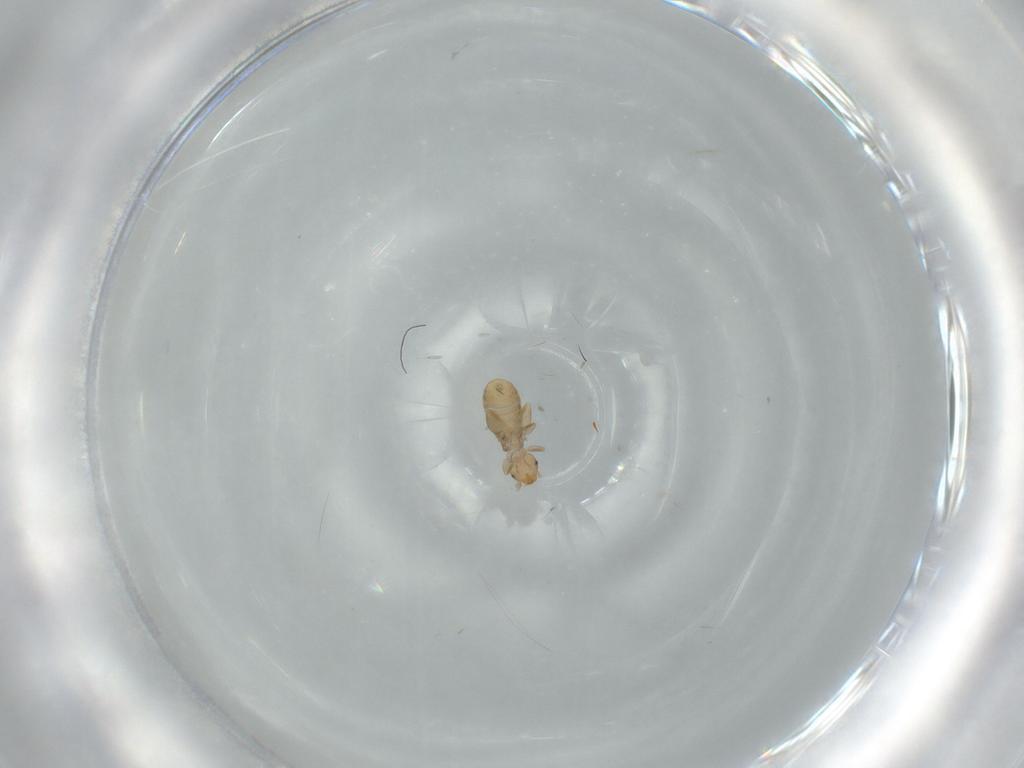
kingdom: Animalia
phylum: Arthropoda
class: Insecta
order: Psocodea
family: Liposcelididae
